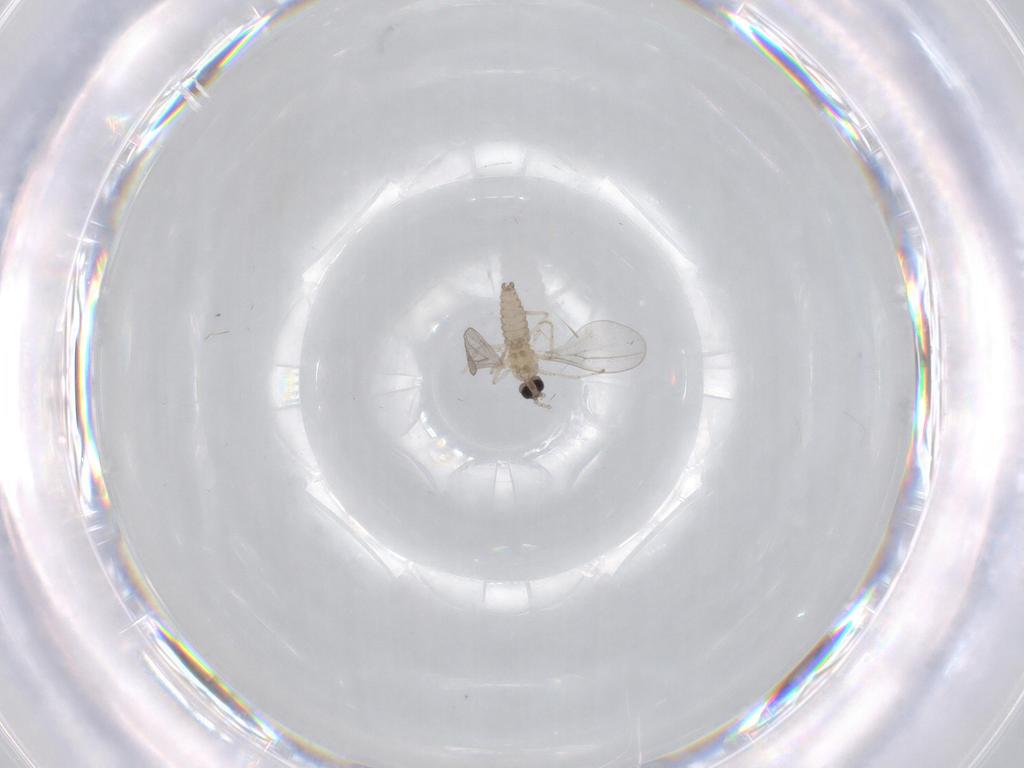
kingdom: Animalia
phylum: Arthropoda
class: Insecta
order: Diptera
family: Cecidomyiidae
